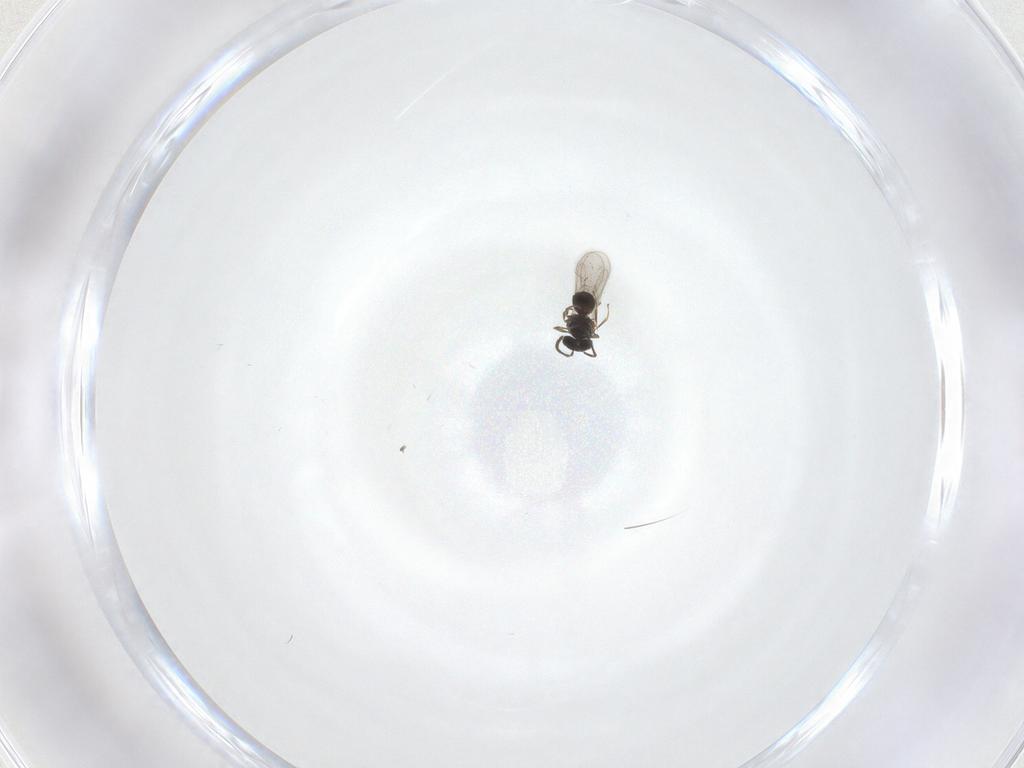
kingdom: Animalia
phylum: Arthropoda
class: Insecta
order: Hymenoptera
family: Scelionidae
